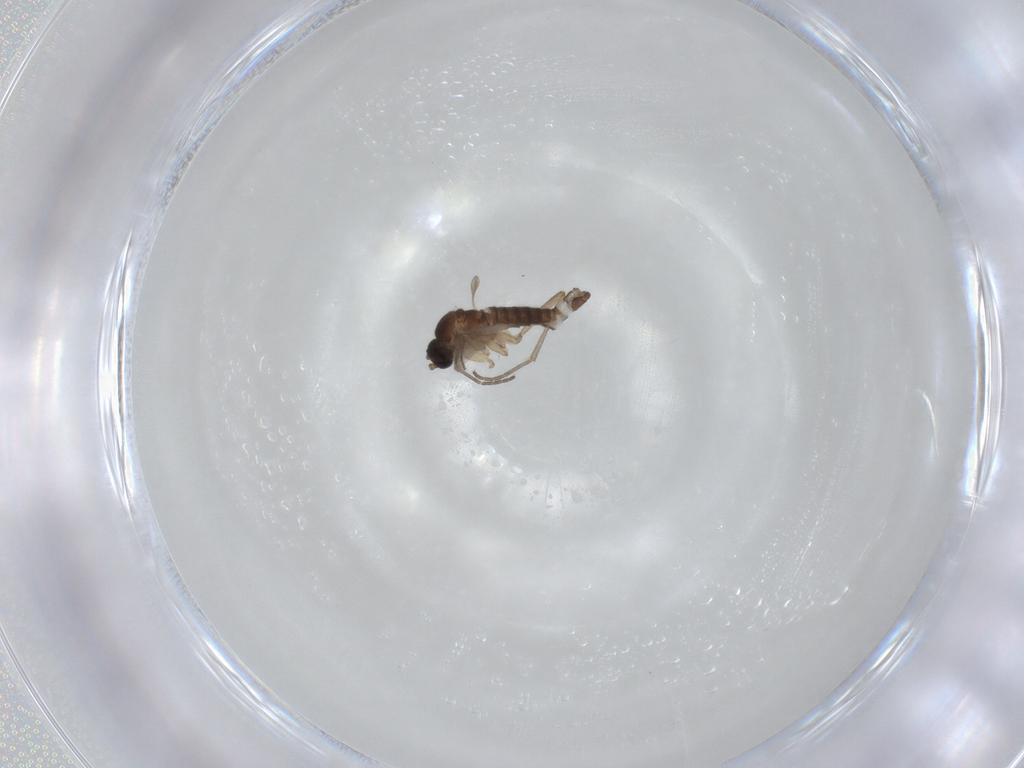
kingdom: Animalia
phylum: Arthropoda
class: Insecta
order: Diptera
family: Sciaridae
